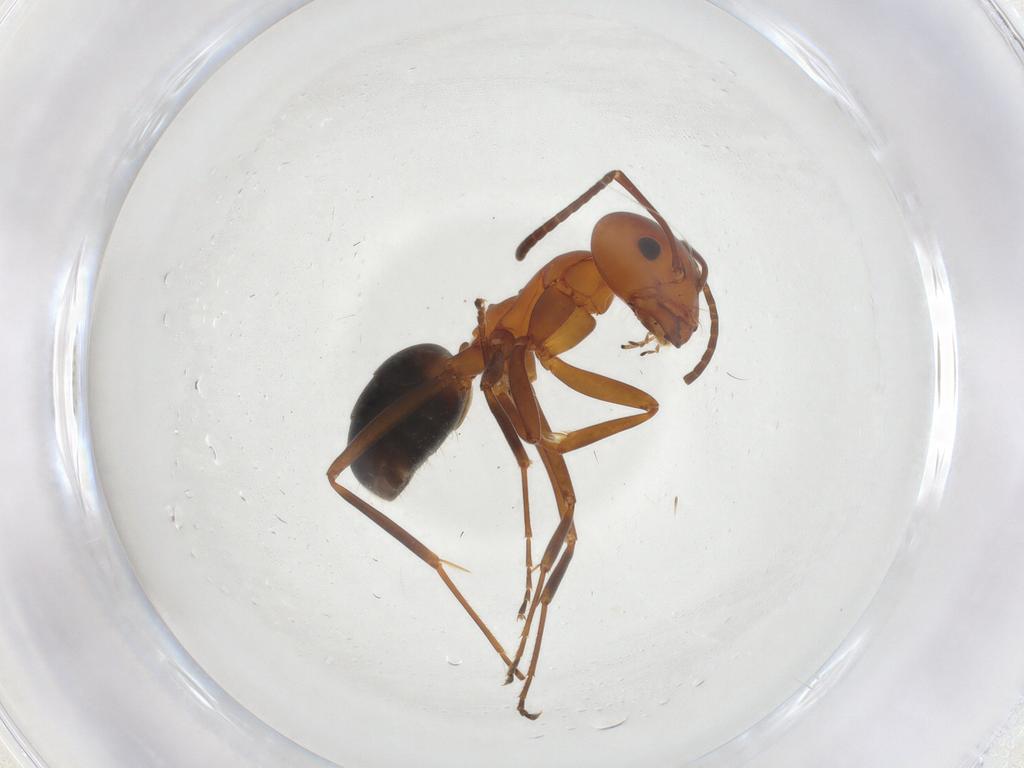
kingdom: Animalia
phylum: Arthropoda
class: Insecta
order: Hymenoptera
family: Formicidae
